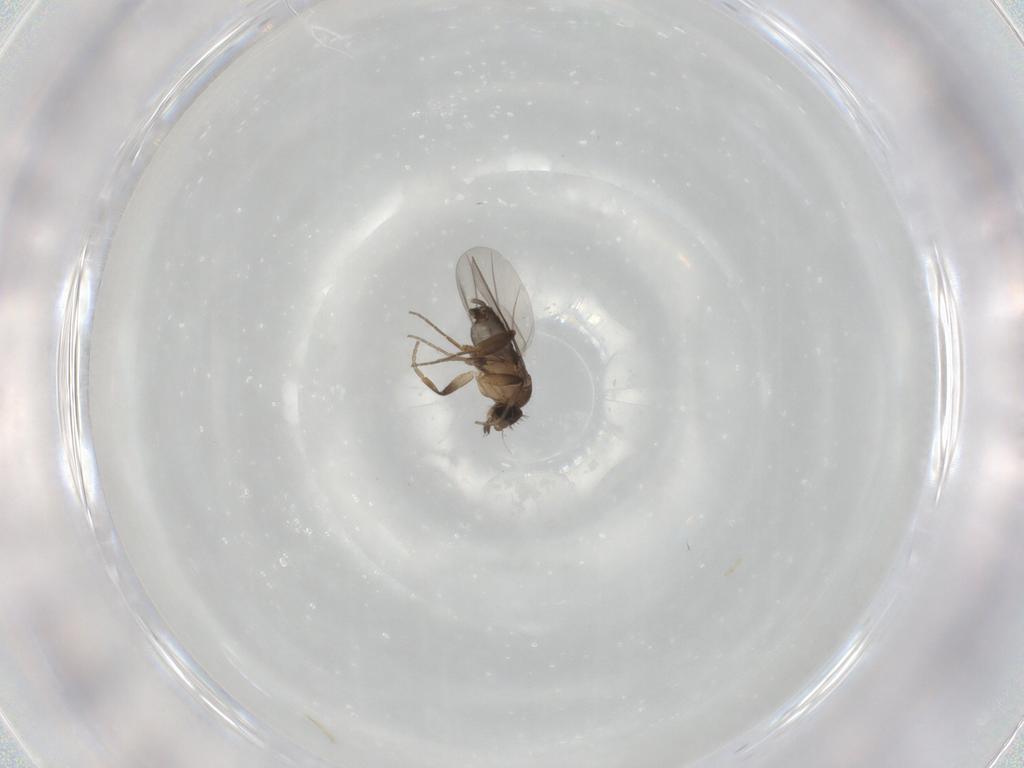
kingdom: Animalia
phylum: Arthropoda
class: Insecta
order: Diptera
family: Phoridae
